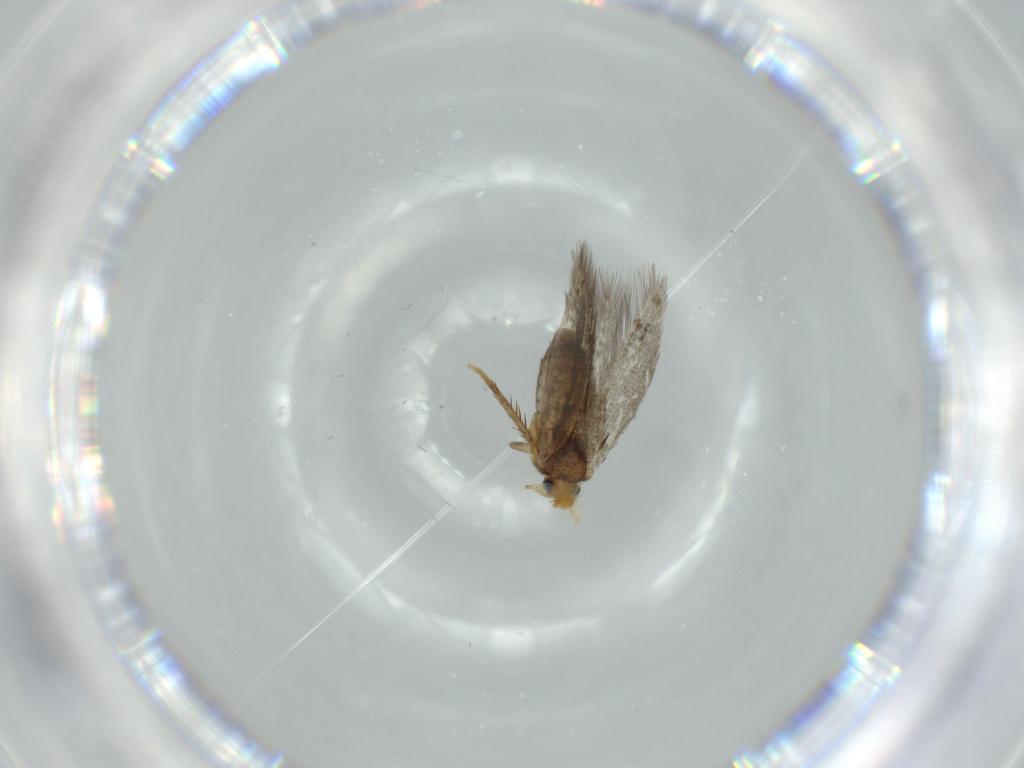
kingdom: Animalia
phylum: Arthropoda
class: Insecta
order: Lepidoptera
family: Nepticulidae
